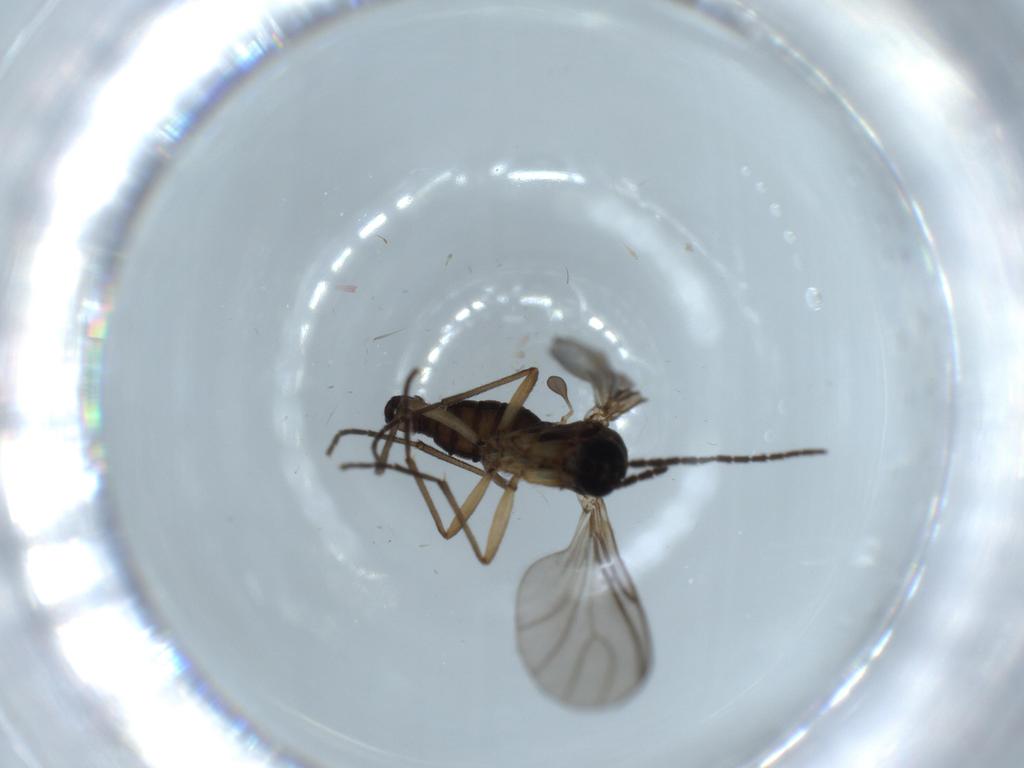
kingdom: Animalia
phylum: Arthropoda
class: Insecta
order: Diptera
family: Sciaridae
